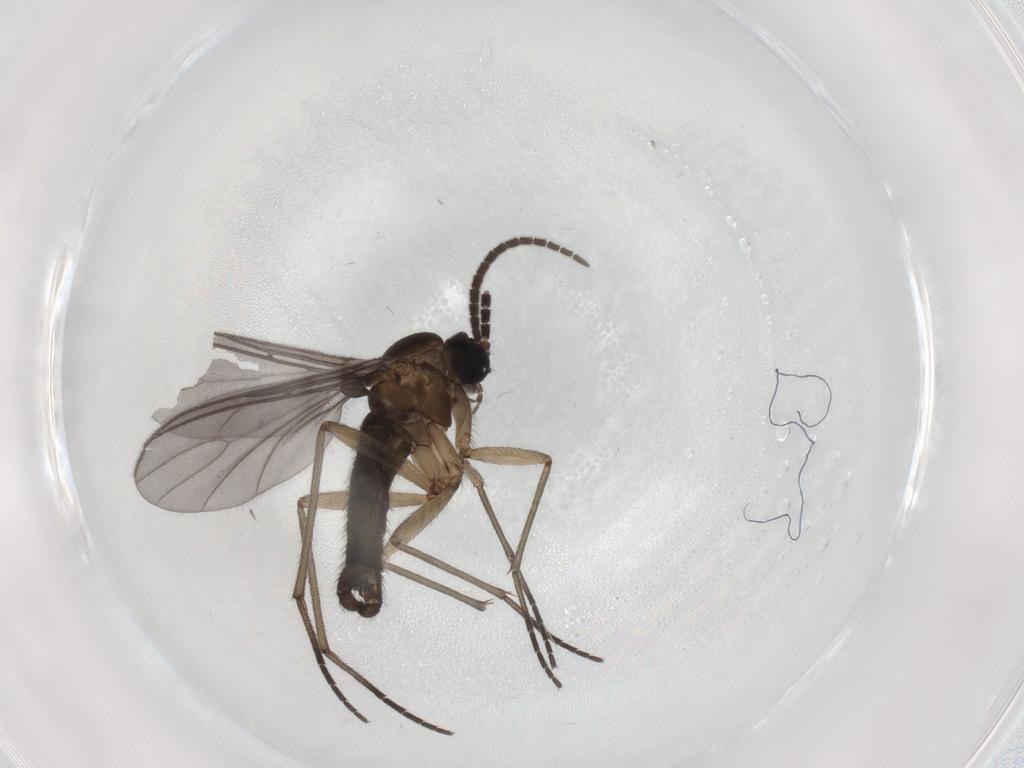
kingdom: Animalia
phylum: Arthropoda
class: Insecta
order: Diptera
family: Sciaridae
